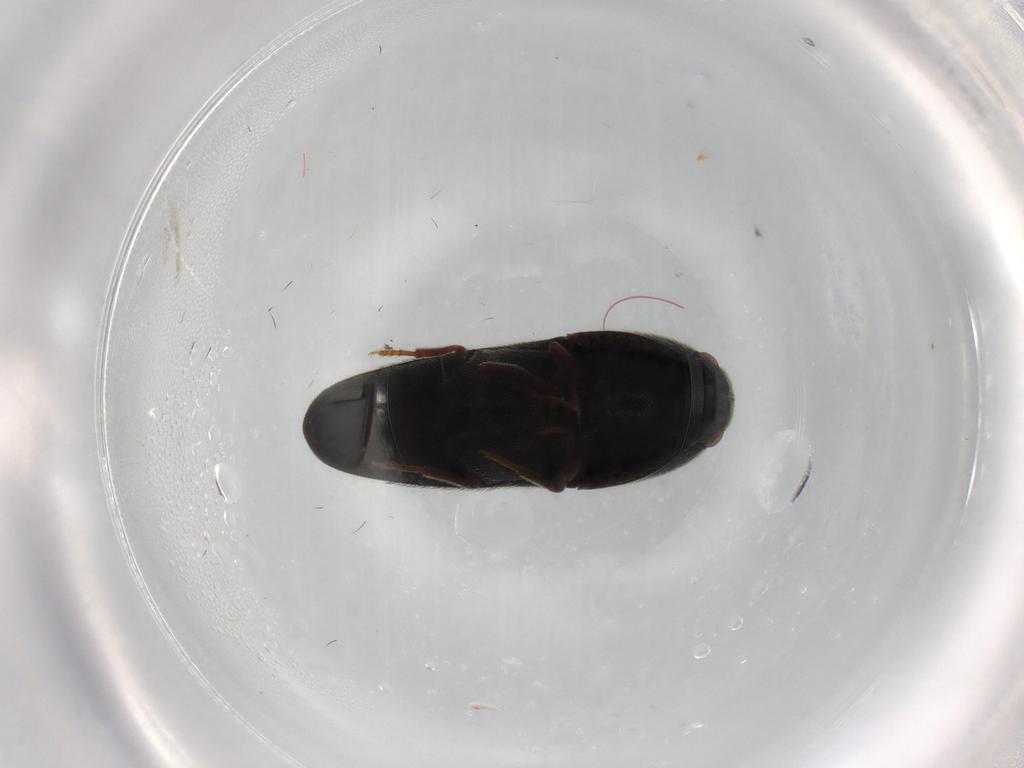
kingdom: Animalia
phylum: Arthropoda
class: Insecta
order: Coleoptera
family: Eucnemidae
